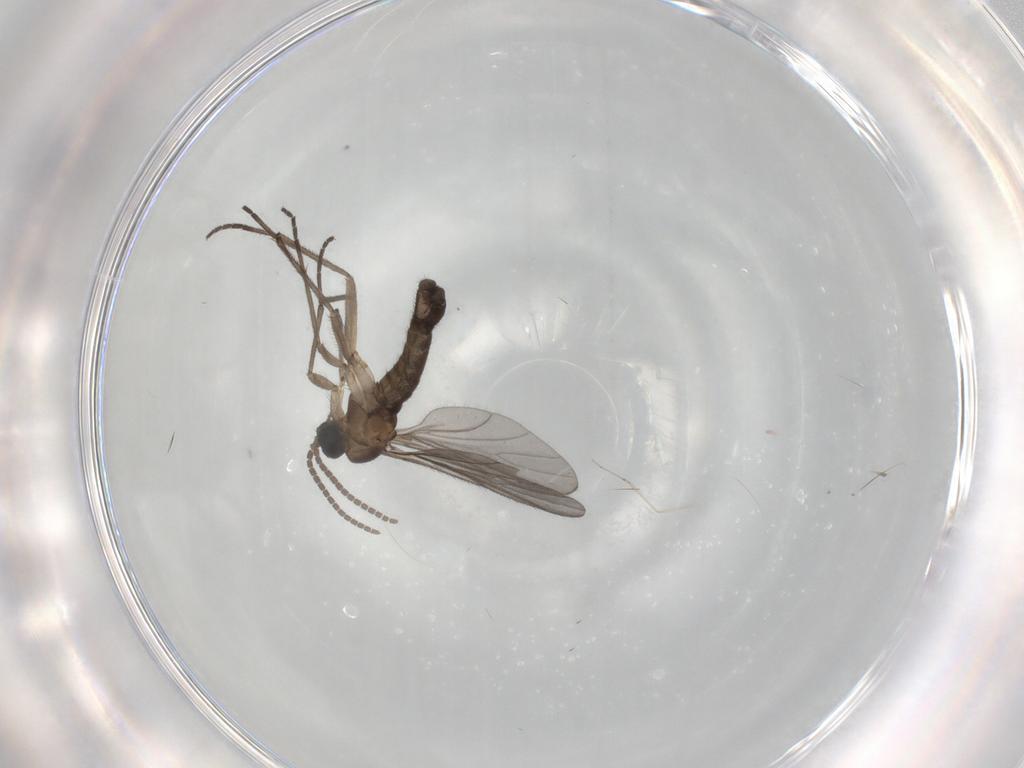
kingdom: Animalia
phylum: Arthropoda
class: Insecta
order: Diptera
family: Sciaridae
